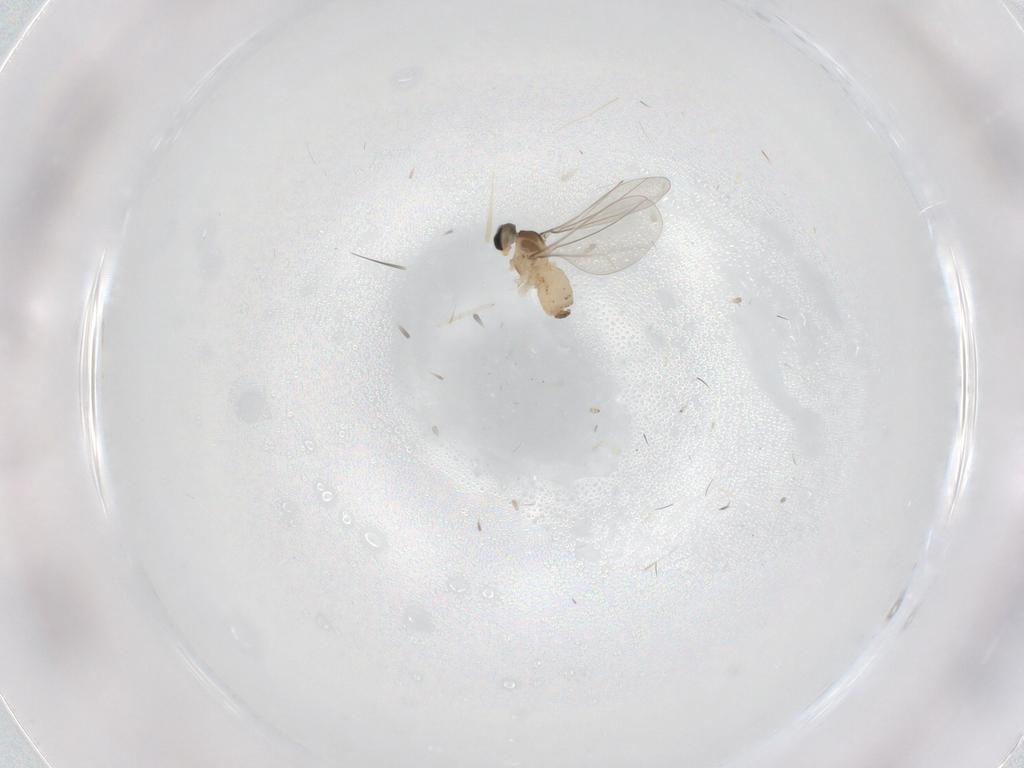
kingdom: Animalia
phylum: Arthropoda
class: Insecta
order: Diptera
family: Cecidomyiidae
